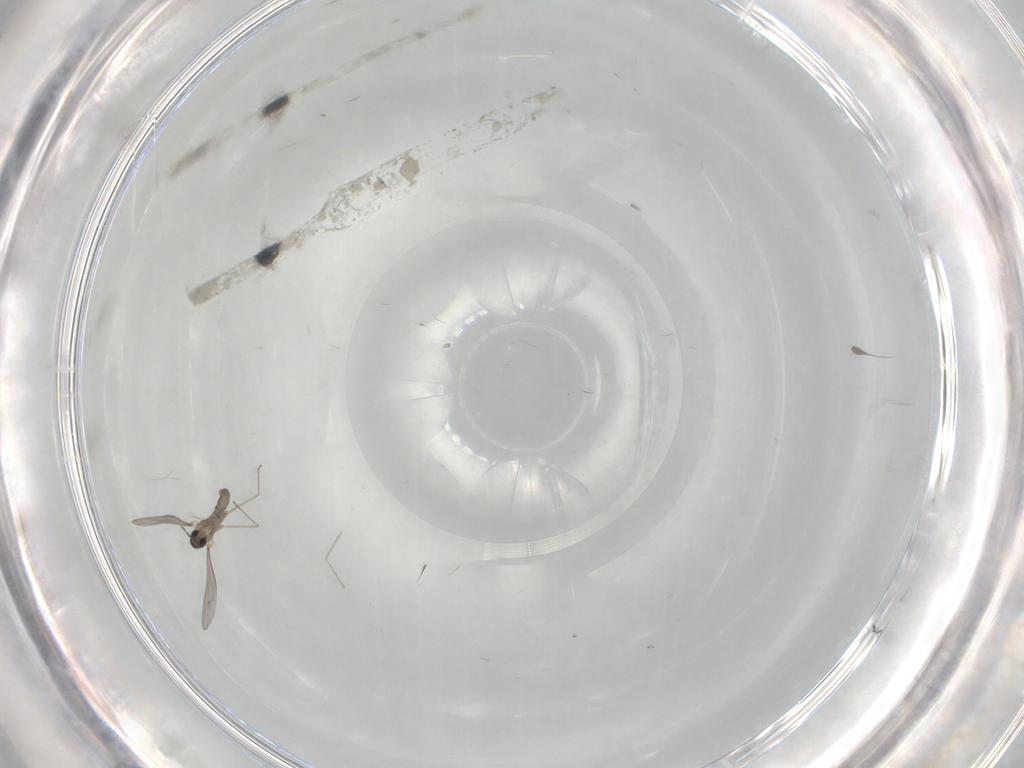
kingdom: Animalia
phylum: Arthropoda
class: Insecta
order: Diptera
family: Cecidomyiidae
